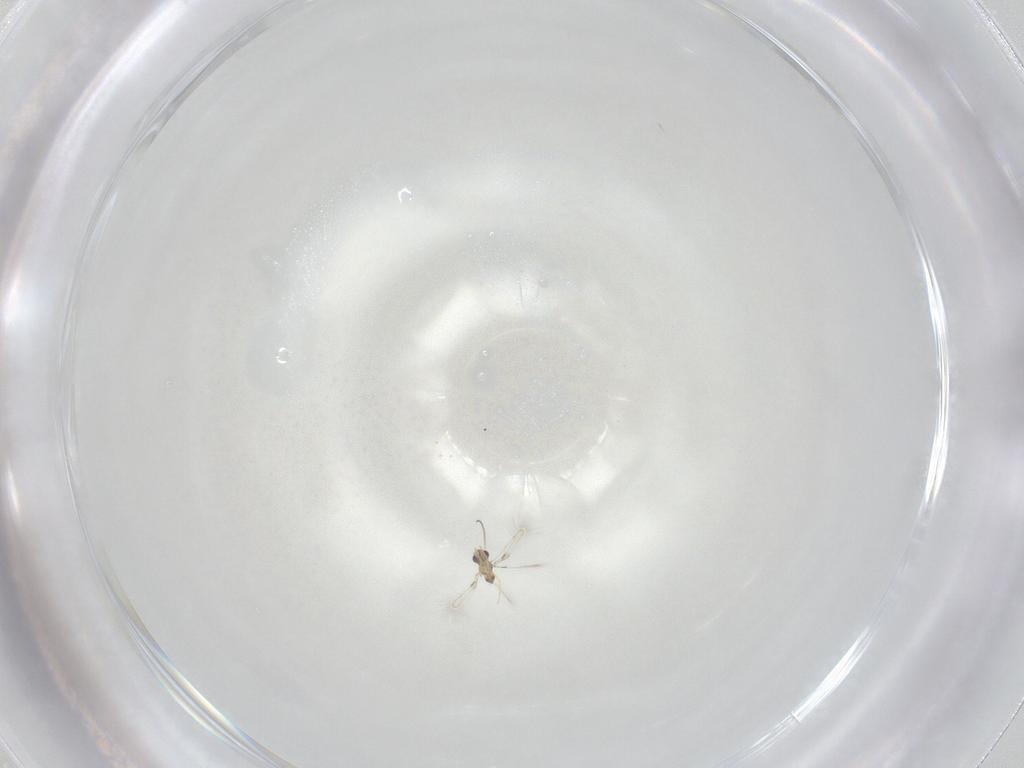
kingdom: Animalia
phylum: Arthropoda
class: Insecta
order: Hymenoptera
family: Mymaridae
